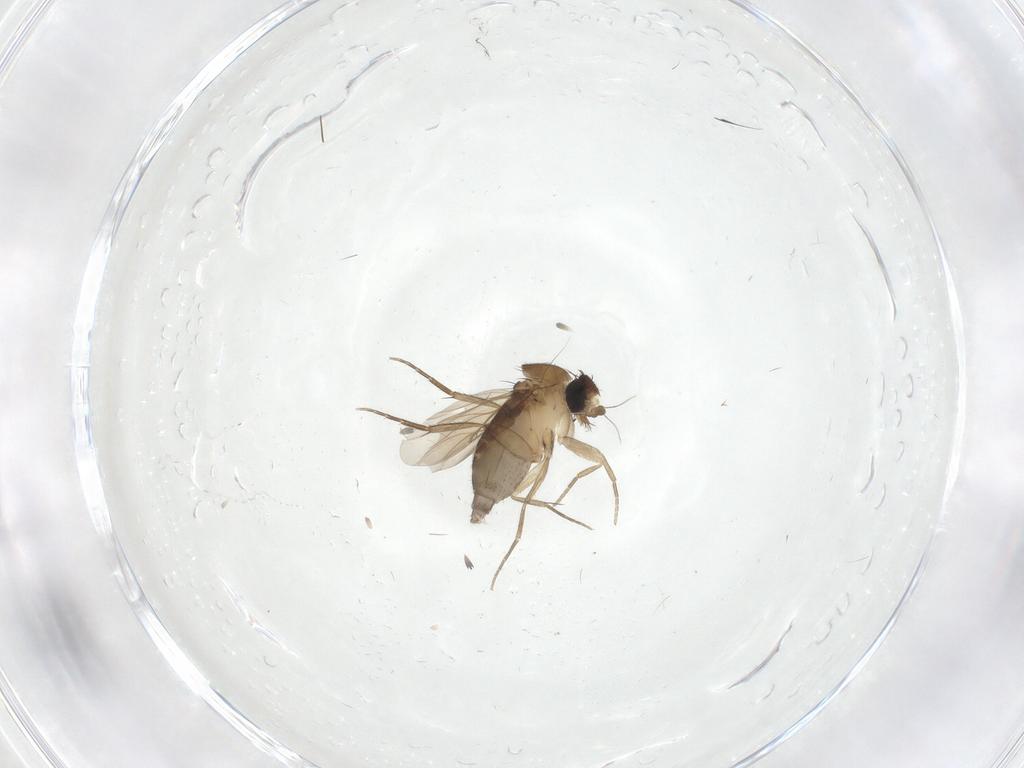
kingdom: Animalia
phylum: Arthropoda
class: Insecta
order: Diptera
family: Phoridae
